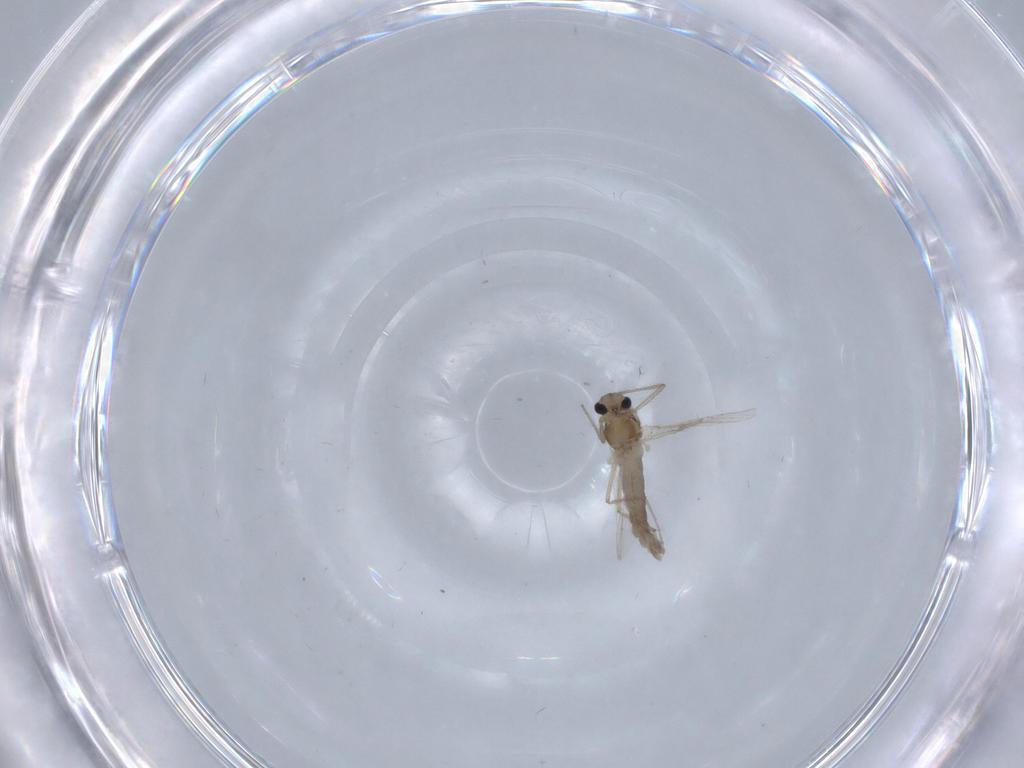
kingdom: Animalia
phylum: Arthropoda
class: Insecta
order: Diptera
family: Chironomidae
